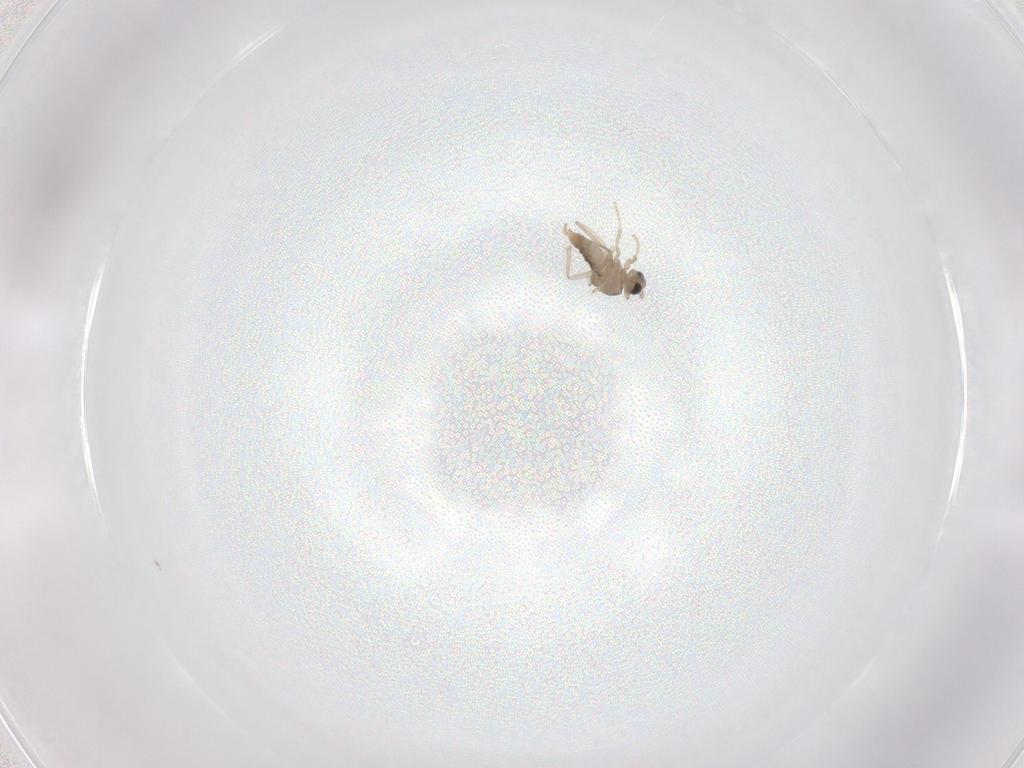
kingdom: Animalia
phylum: Arthropoda
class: Insecta
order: Diptera
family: Cecidomyiidae
